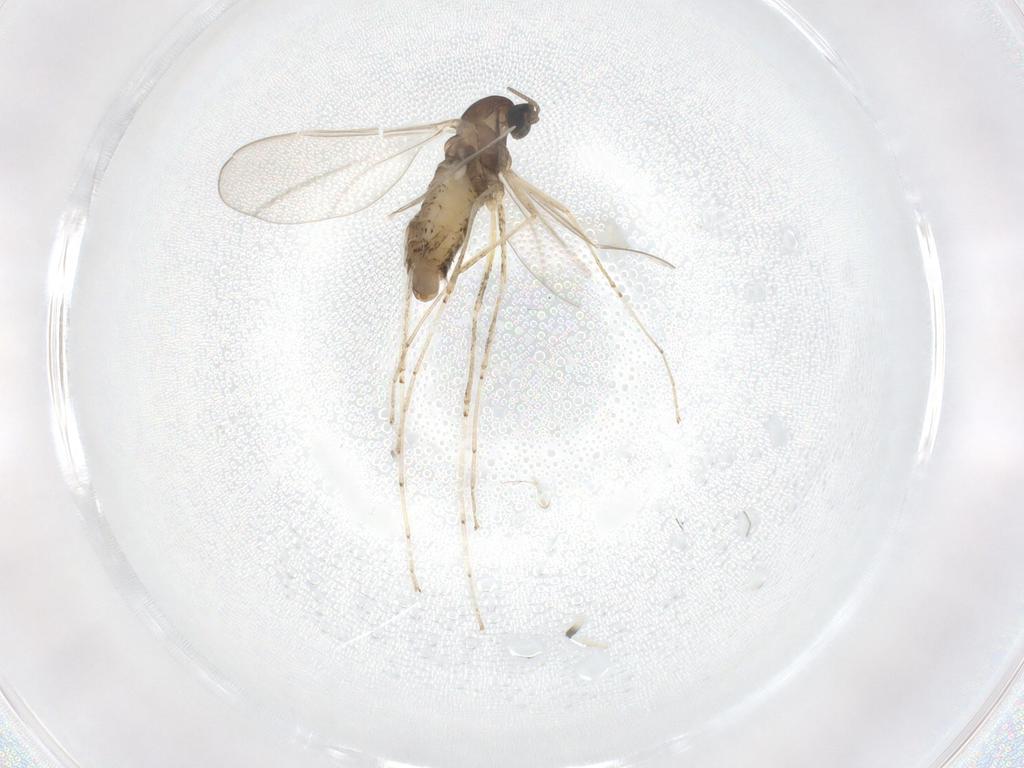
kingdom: Animalia
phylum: Arthropoda
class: Insecta
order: Diptera
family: Cecidomyiidae
